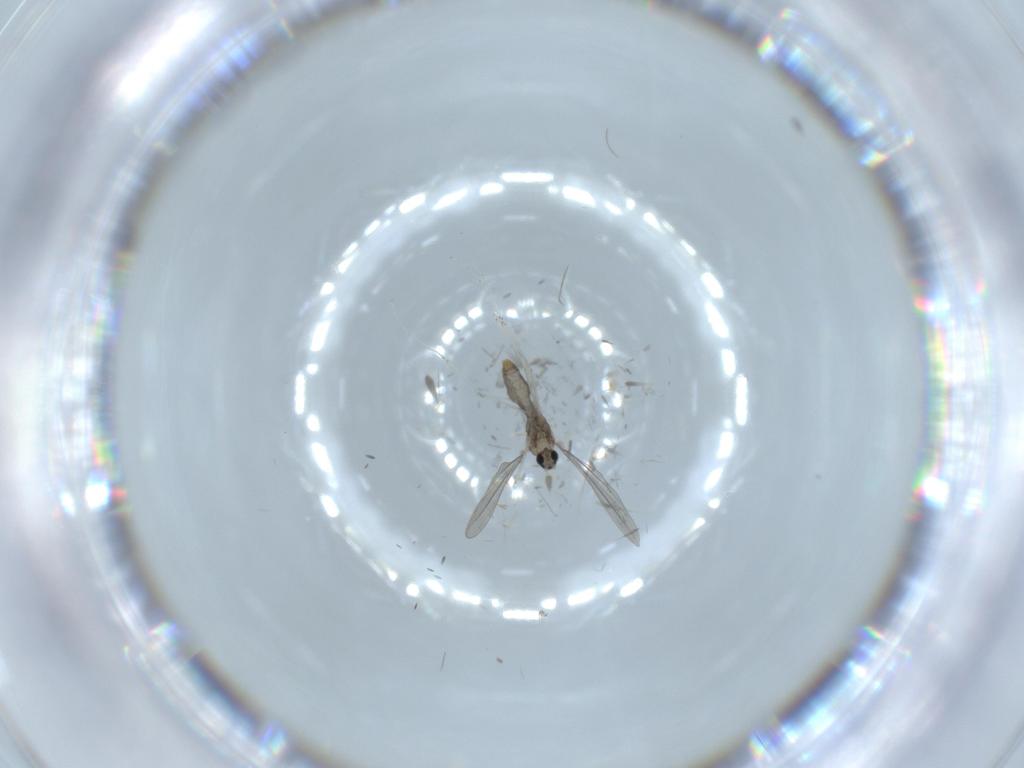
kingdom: Animalia
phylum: Arthropoda
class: Insecta
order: Diptera
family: Cecidomyiidae
